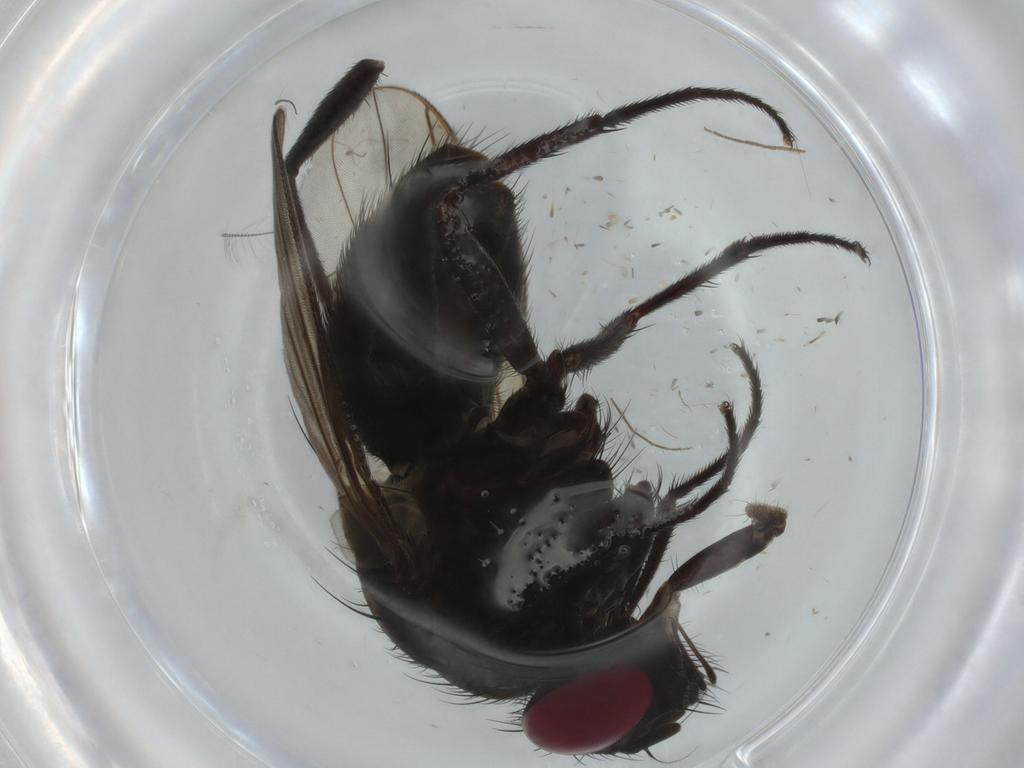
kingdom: Animalia
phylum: Arthropoda
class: Insecta
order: Diptera
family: Muscidae
